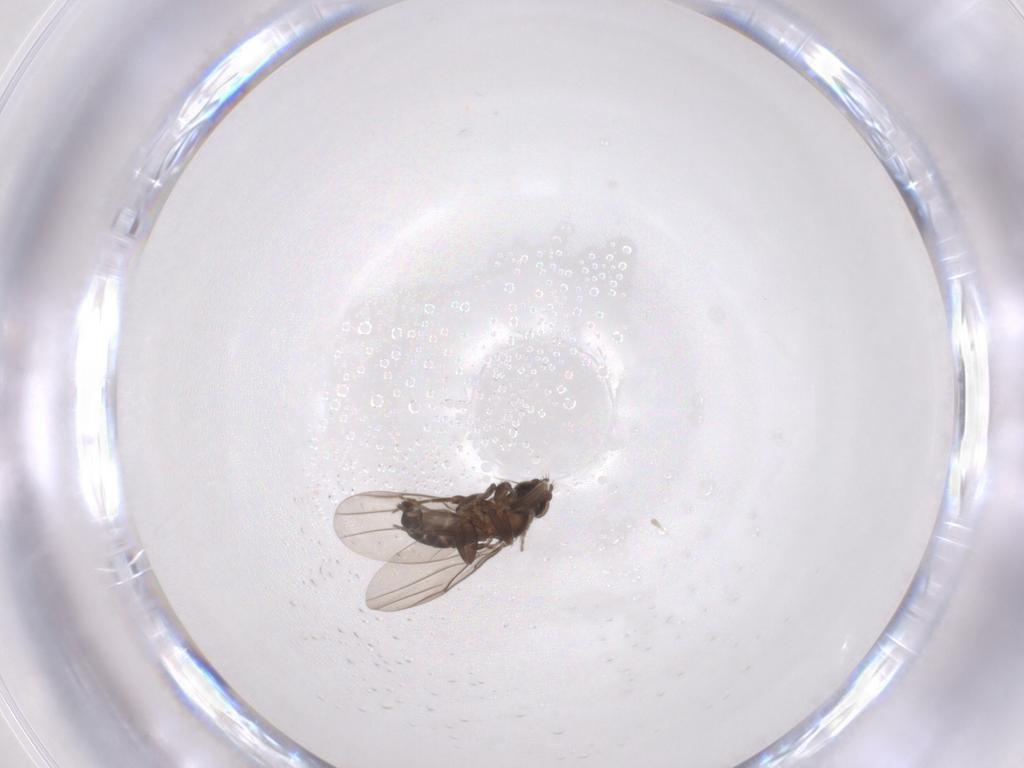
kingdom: Animalia
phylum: Arthropoda
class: Insecta
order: Diptera
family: Phoridae
